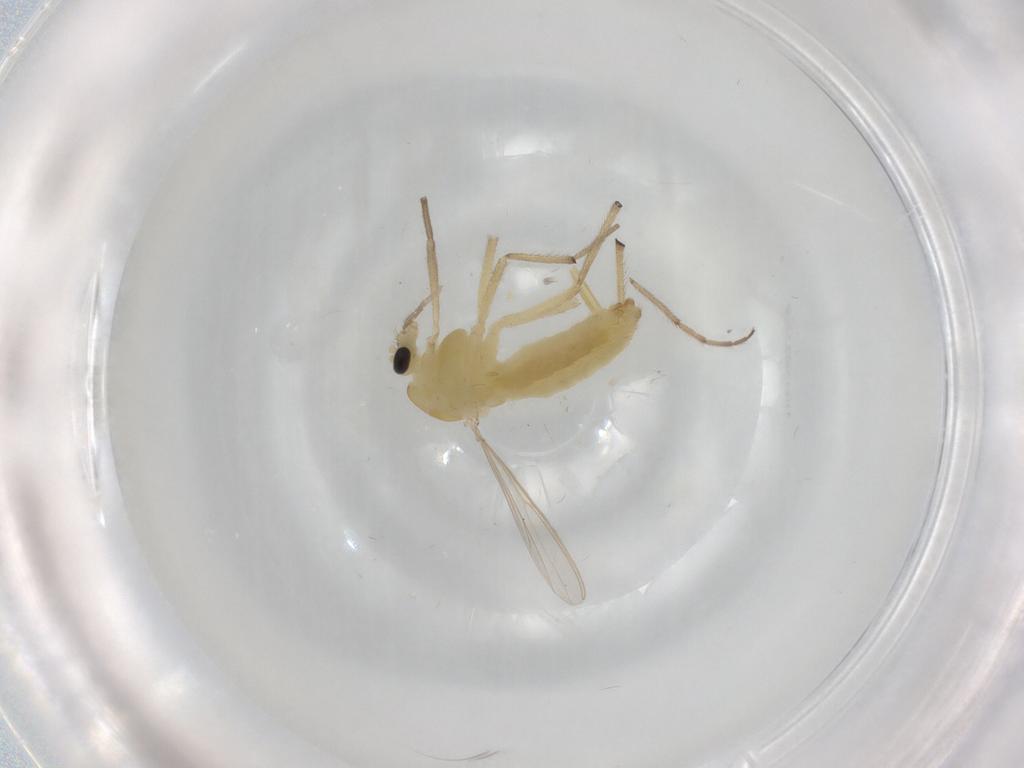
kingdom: Animalia
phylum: Arthropoda
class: Insecta
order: Diptera
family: Chironomidae
